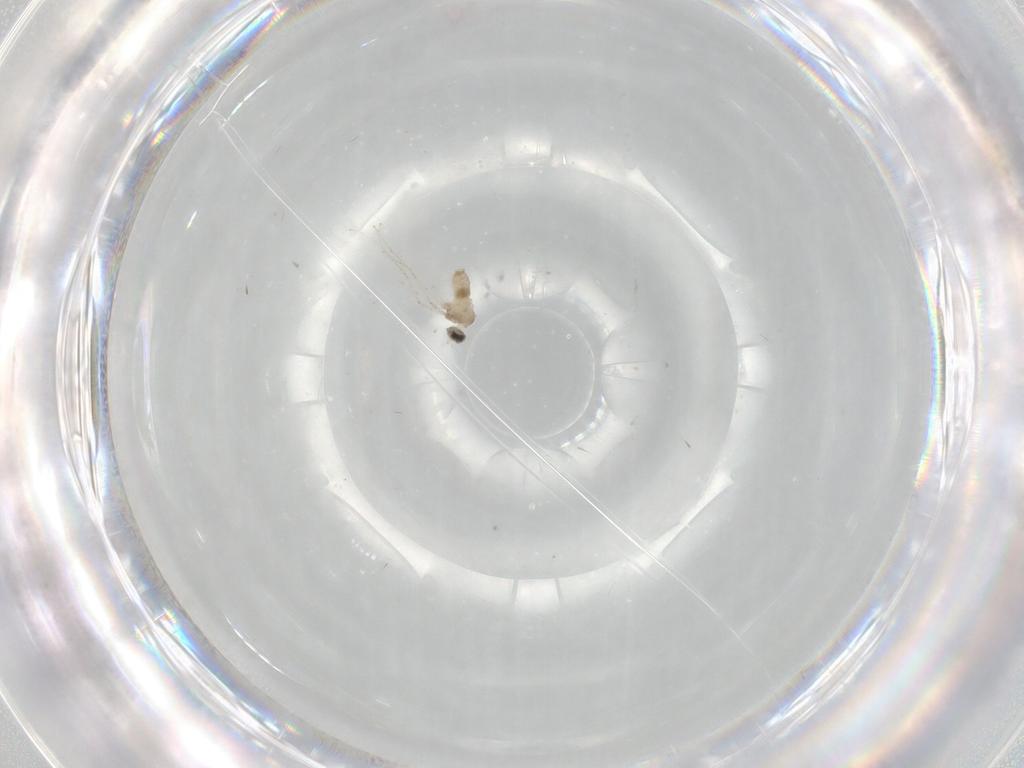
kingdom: Animalia
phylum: Arthropoda
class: Insecta
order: Diptera
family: Cecidomyiidae
